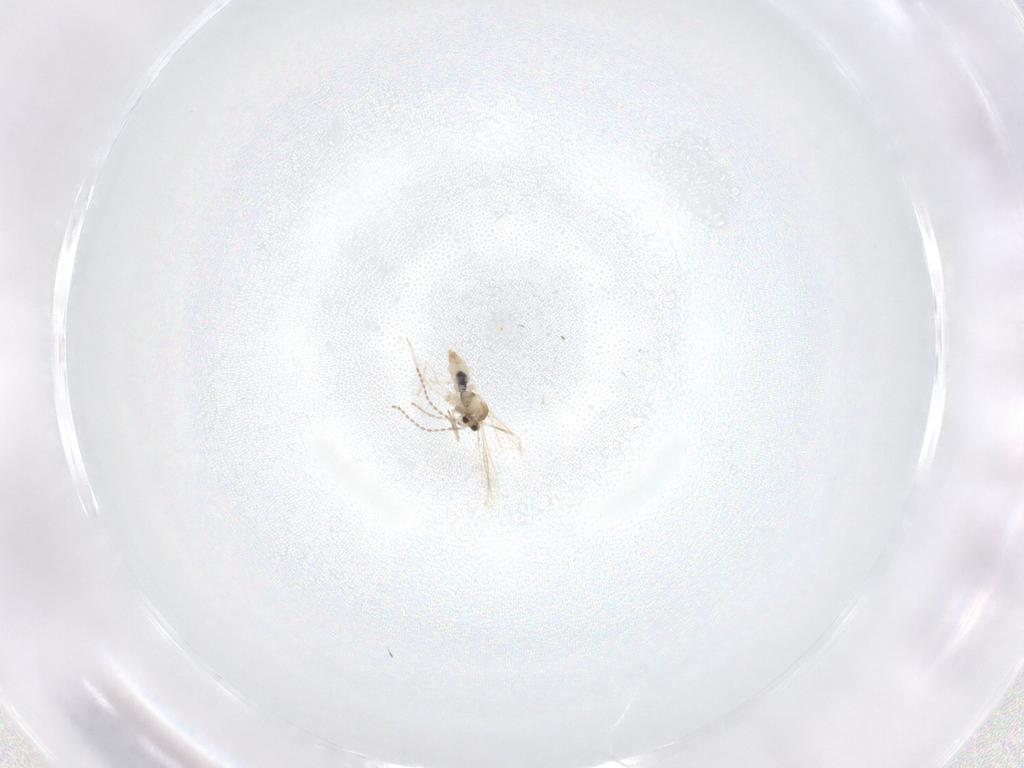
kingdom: Animalia
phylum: Arthropoda
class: Insecta
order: Diptera
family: Cecidomyiidae
